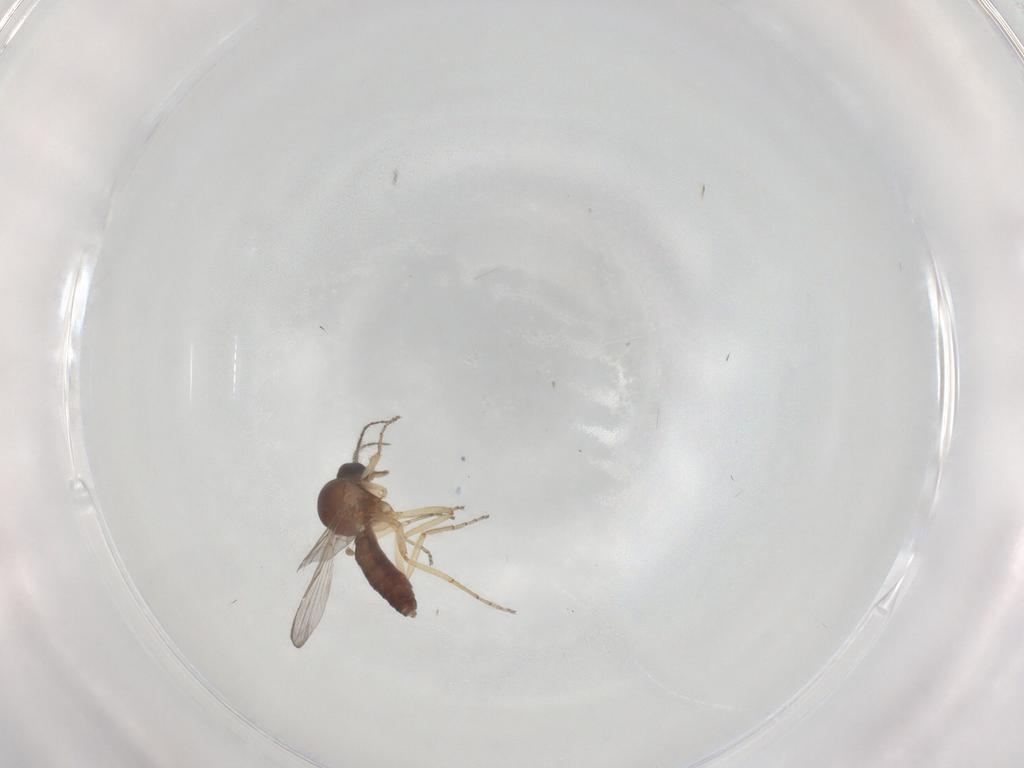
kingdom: Animalia
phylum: Arthropoda
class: Insecta
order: Diptera
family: Ceratopogonidae
